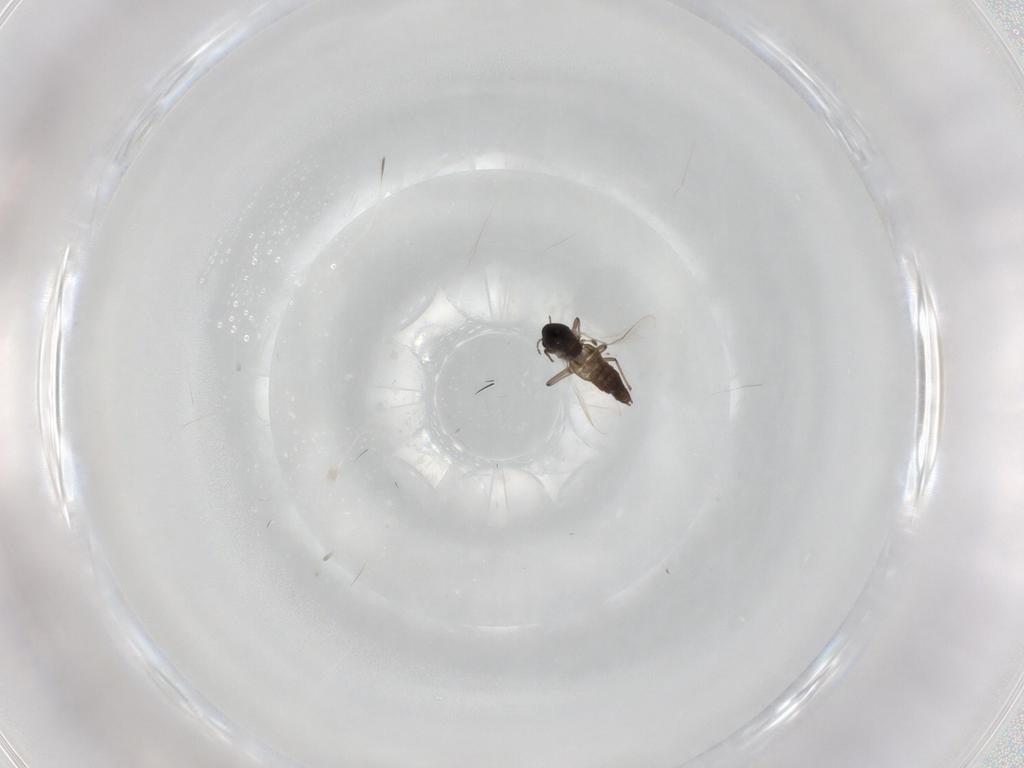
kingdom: Animalia
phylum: Arthropoda
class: Insecta
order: Diptera
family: Chironomidae
